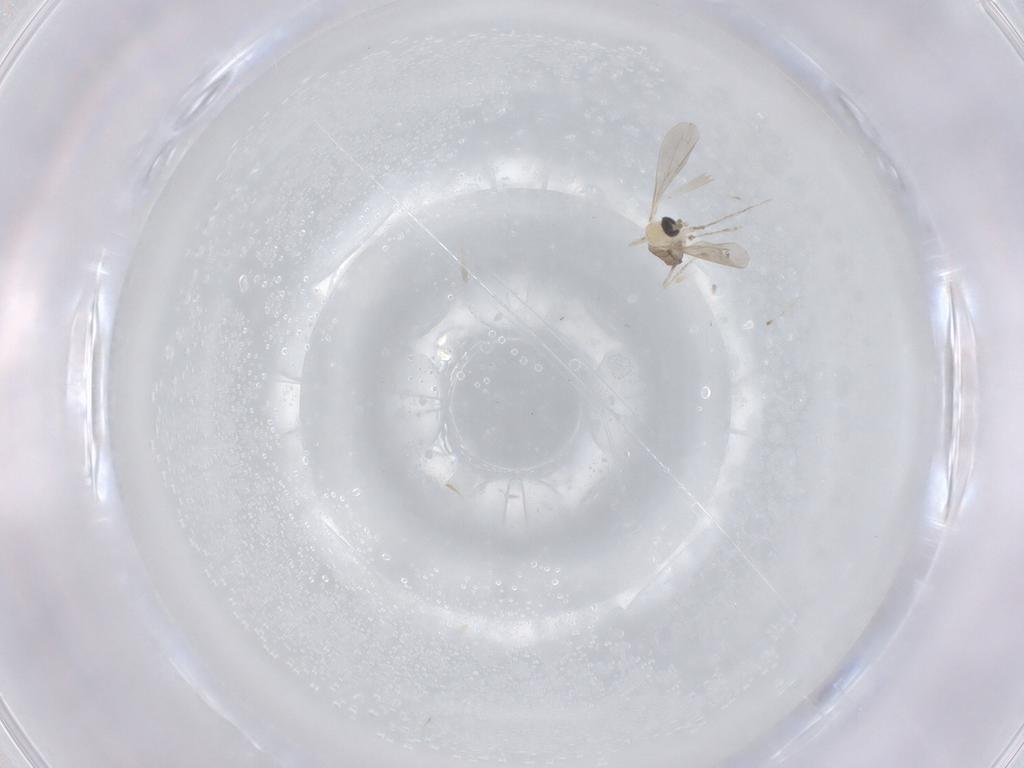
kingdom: Animalia
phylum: Arthropoda
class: Insecta
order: Diptera
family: Cecidomyiidae
